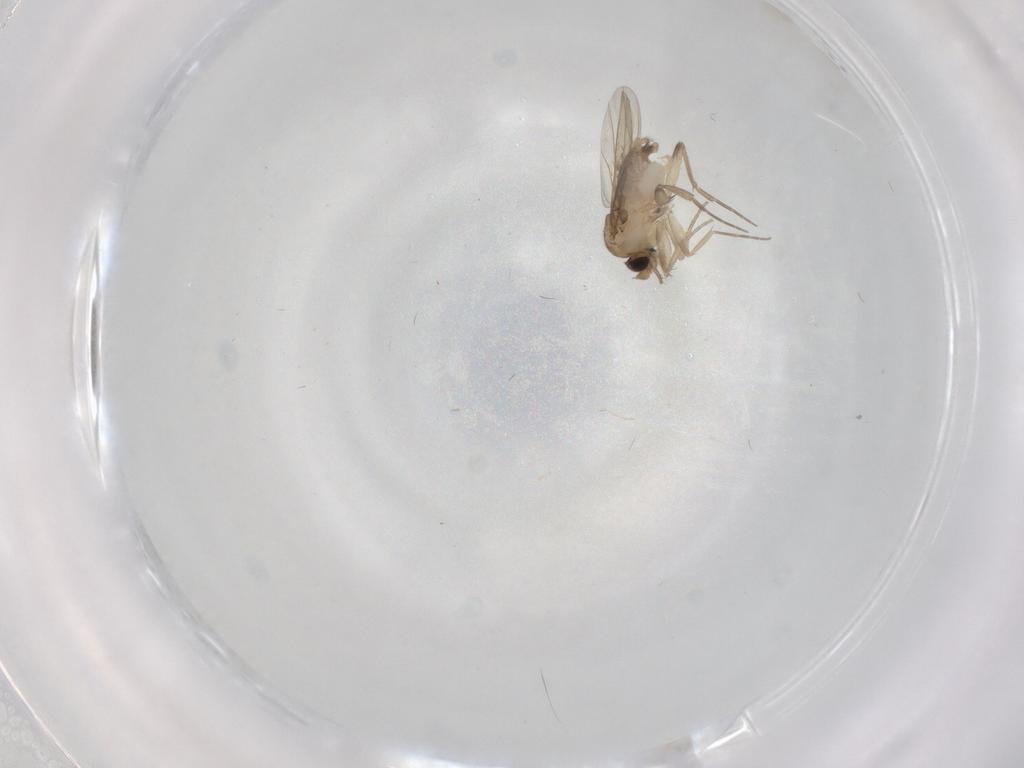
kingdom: Animalia
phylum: Arthropoda
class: Insecta
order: Diptera
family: Phoridae
